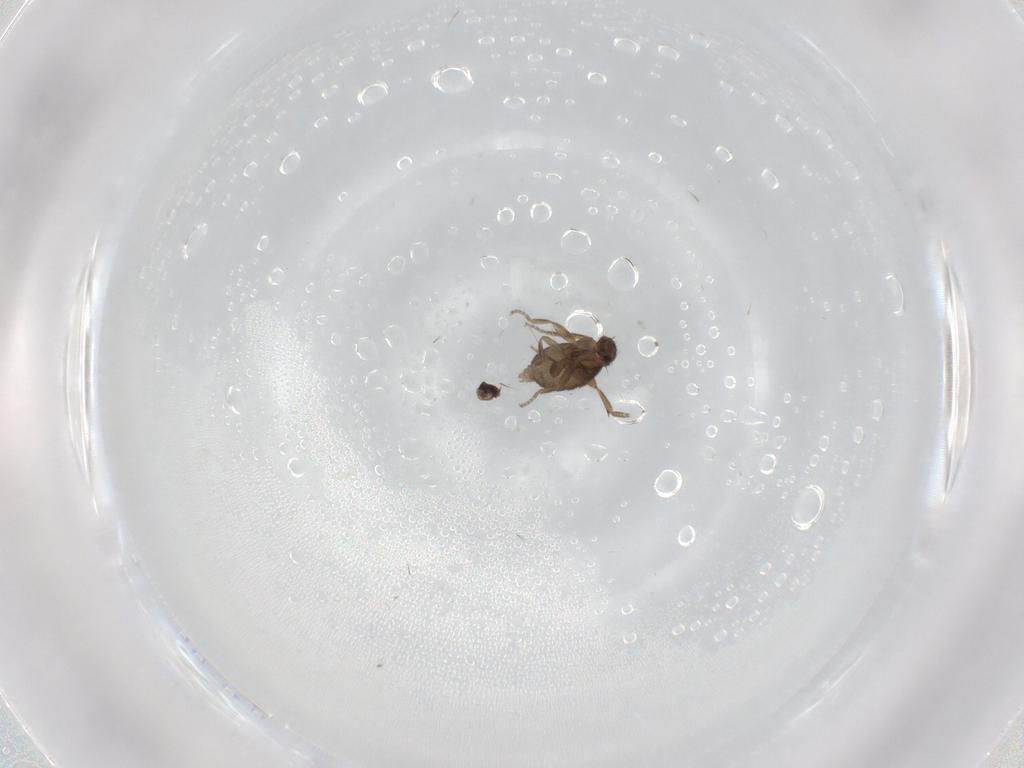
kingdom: Animalia
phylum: Arthropoda
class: Insecta
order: Diptera
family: Phoridae
